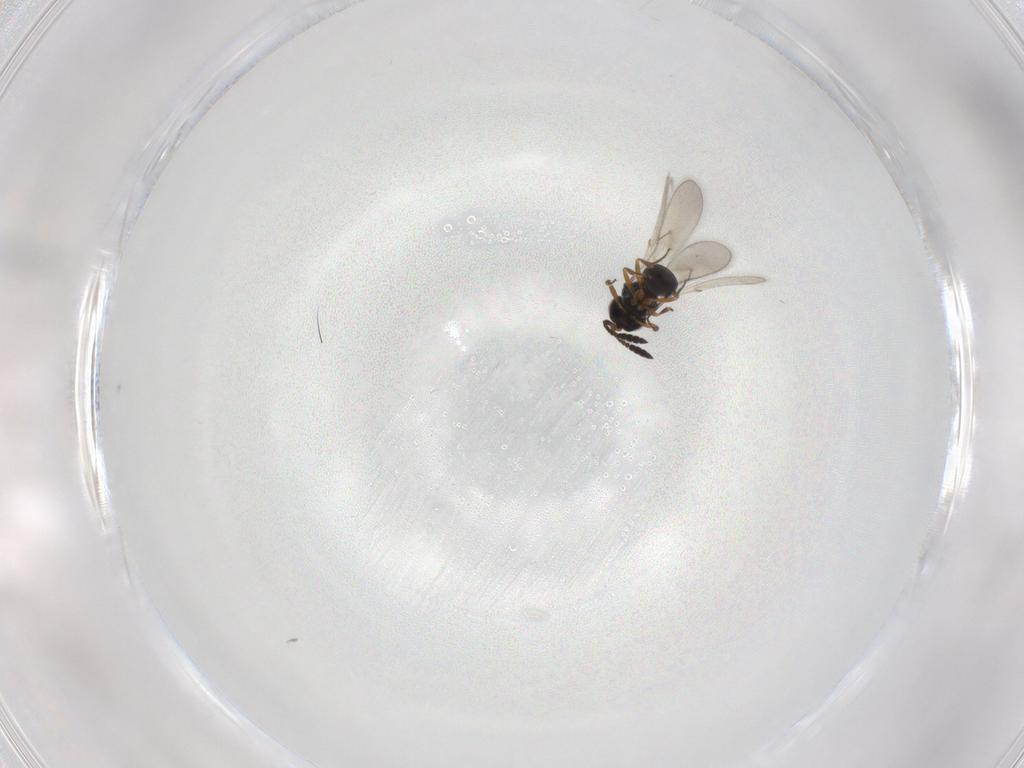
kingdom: Animalia
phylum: Arthropoda
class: Insecta
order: Hymenoptera
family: Scelionidae
